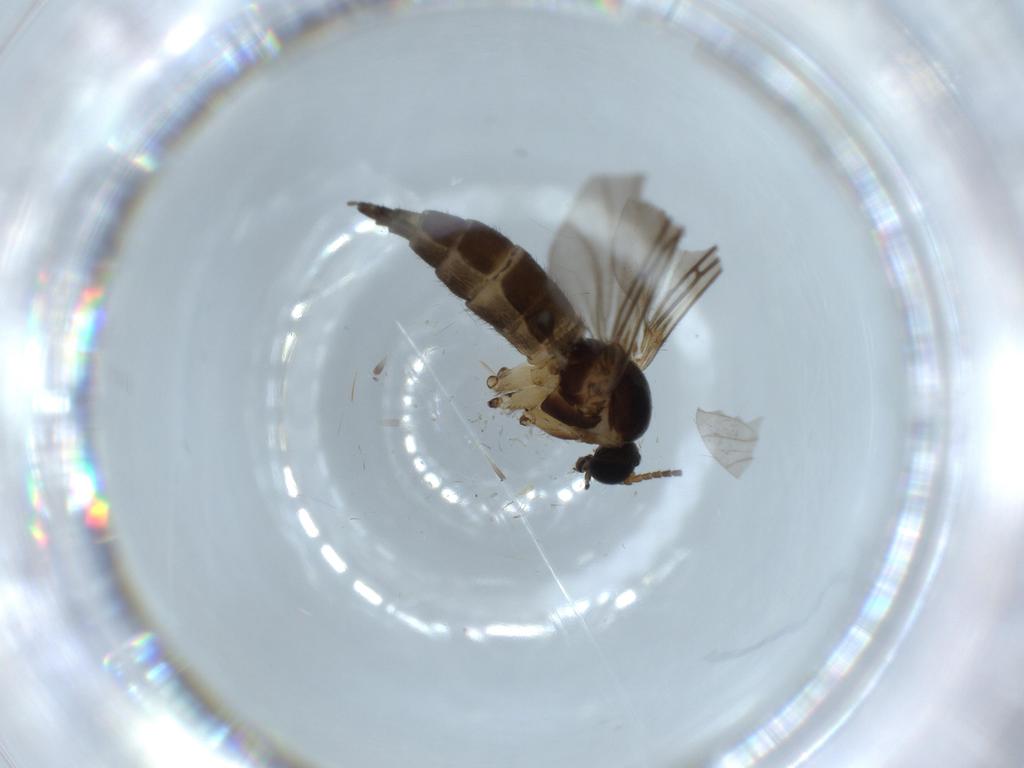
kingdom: Animalia
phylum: Arthropoda
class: Insecta
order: Diptera
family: Sciaridae
